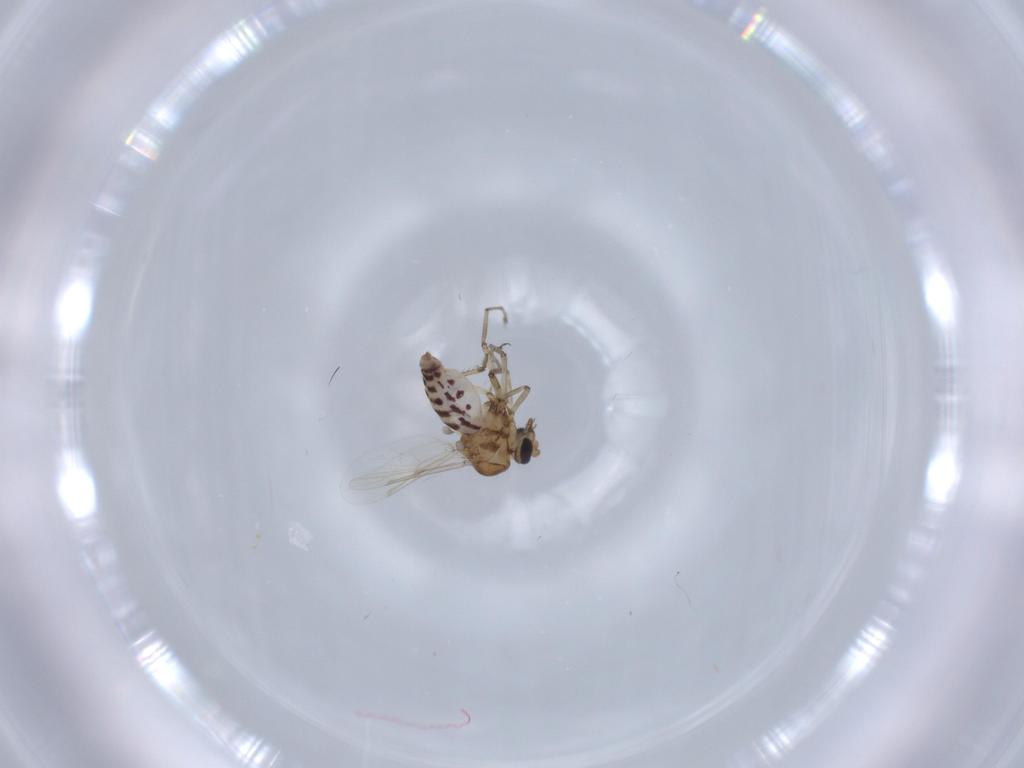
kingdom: Animalia
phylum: Arthropoda
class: Insecta
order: Diptera
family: Ceratopogonidae
